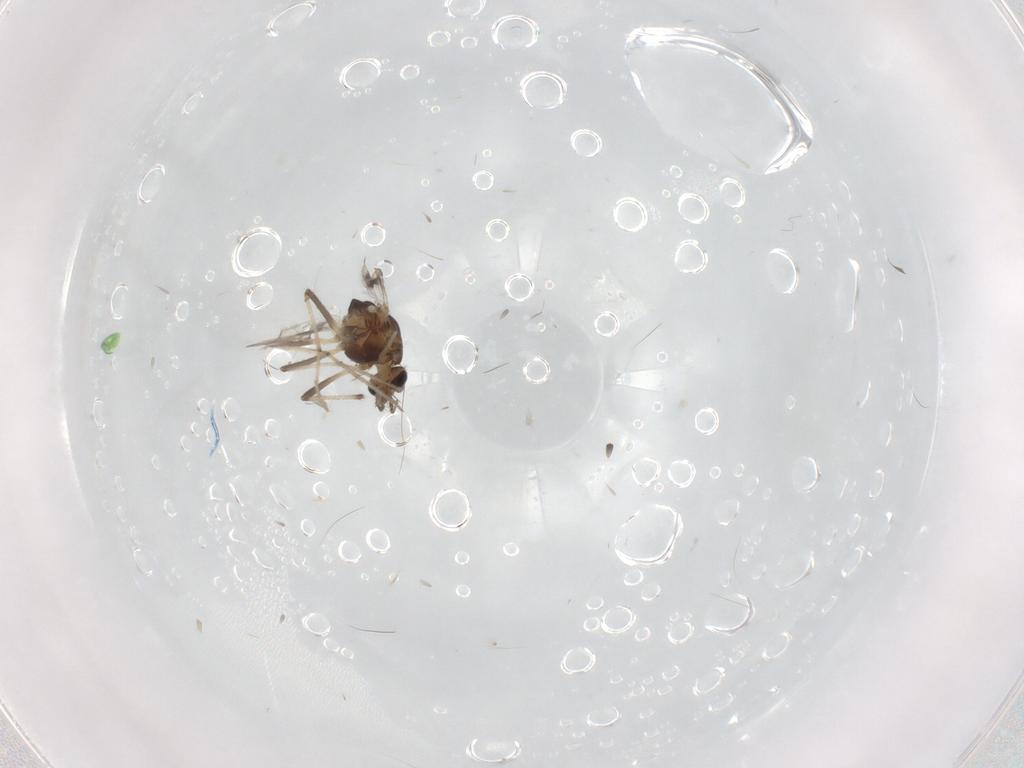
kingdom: Animalia
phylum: Arthropoda
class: Insecta
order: Diptera
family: Chironomidae
